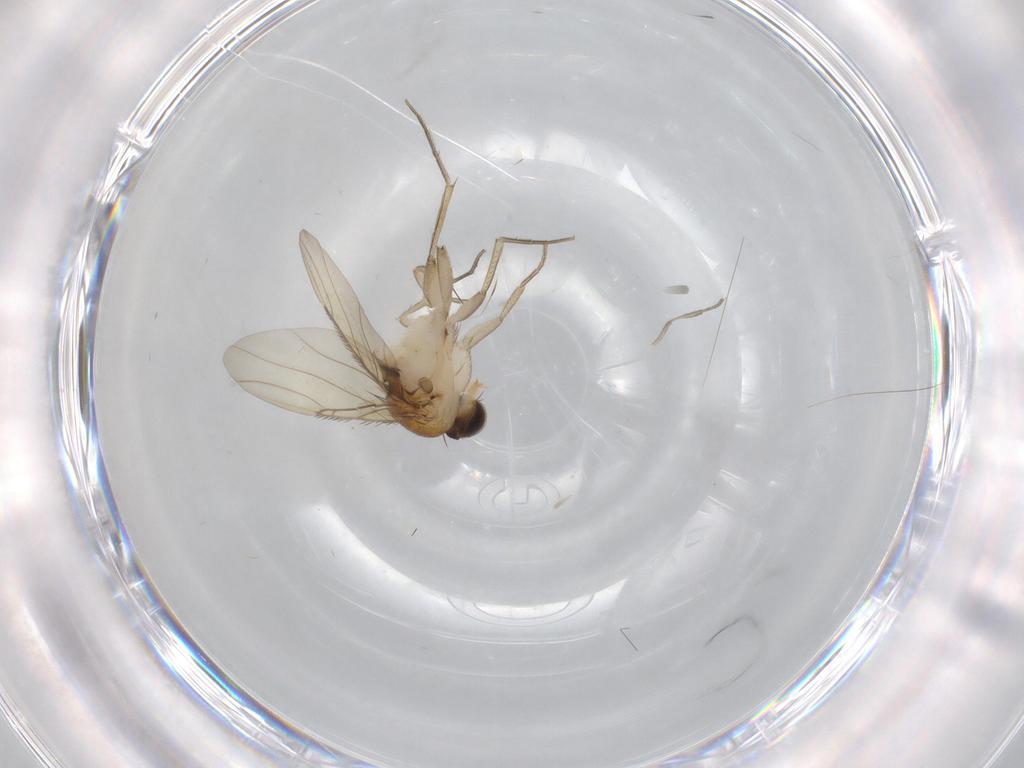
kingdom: Animalia
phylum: Arthropoda
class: Insecta
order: Diptera
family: Phoridae
